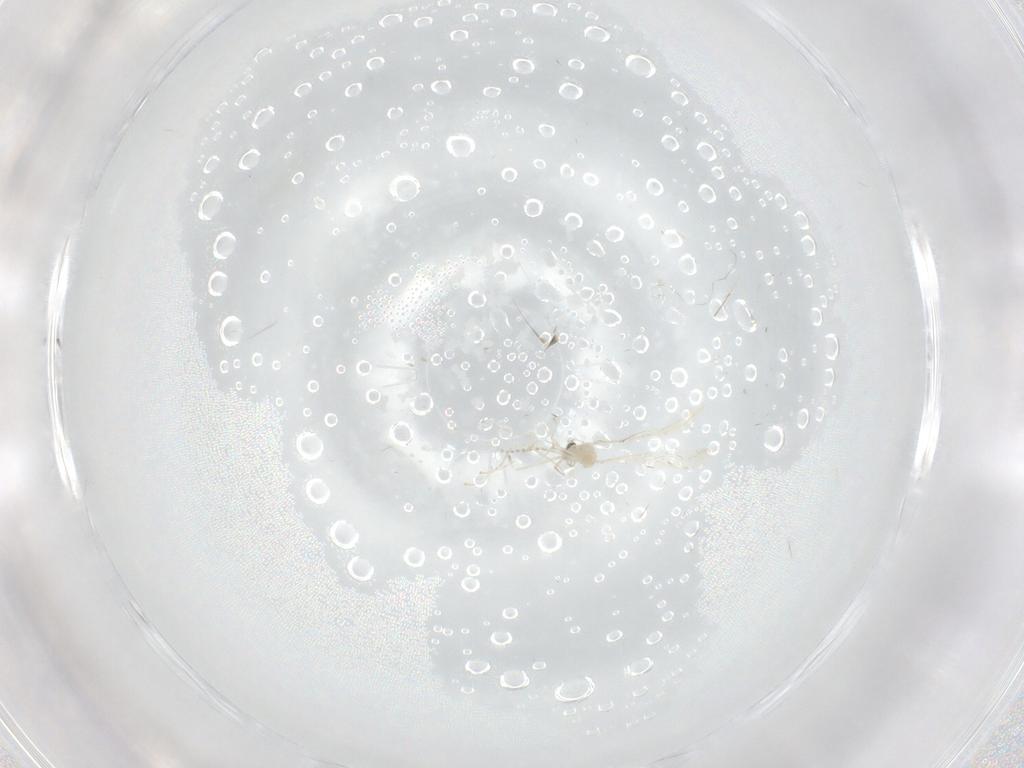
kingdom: Animalia
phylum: Arthropoda
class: Insecta
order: Diptera
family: Cecidomyiidae
